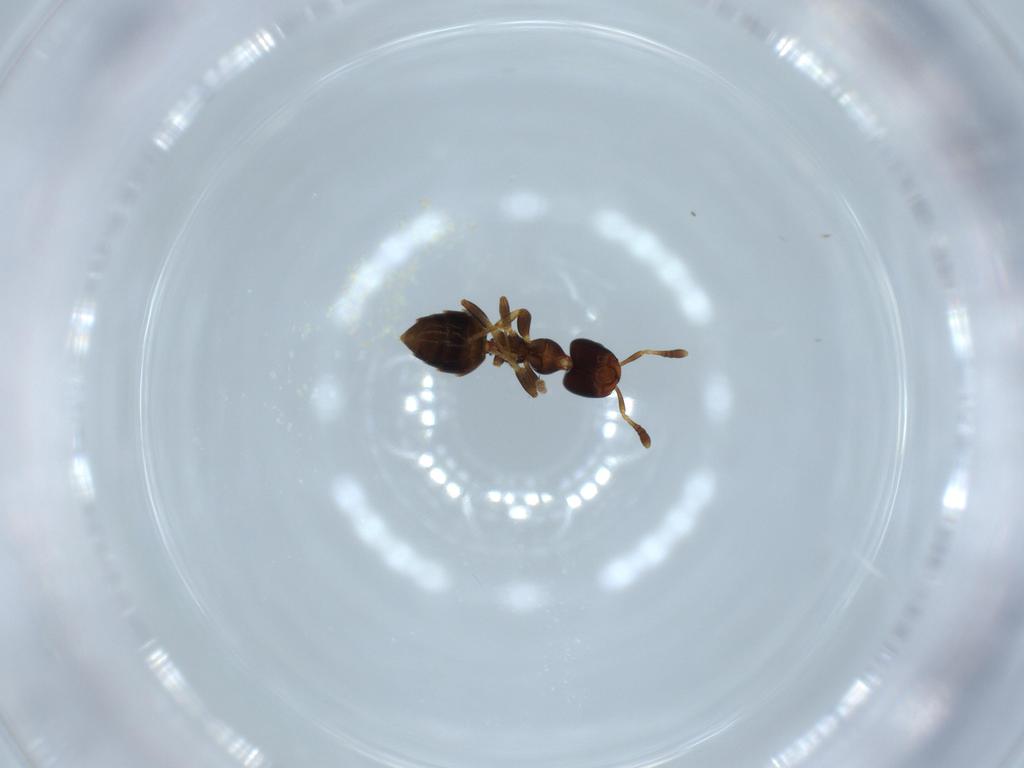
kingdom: Animalia
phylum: Arthropoda
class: Insecta
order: Hymenoptera
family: Formicidae
